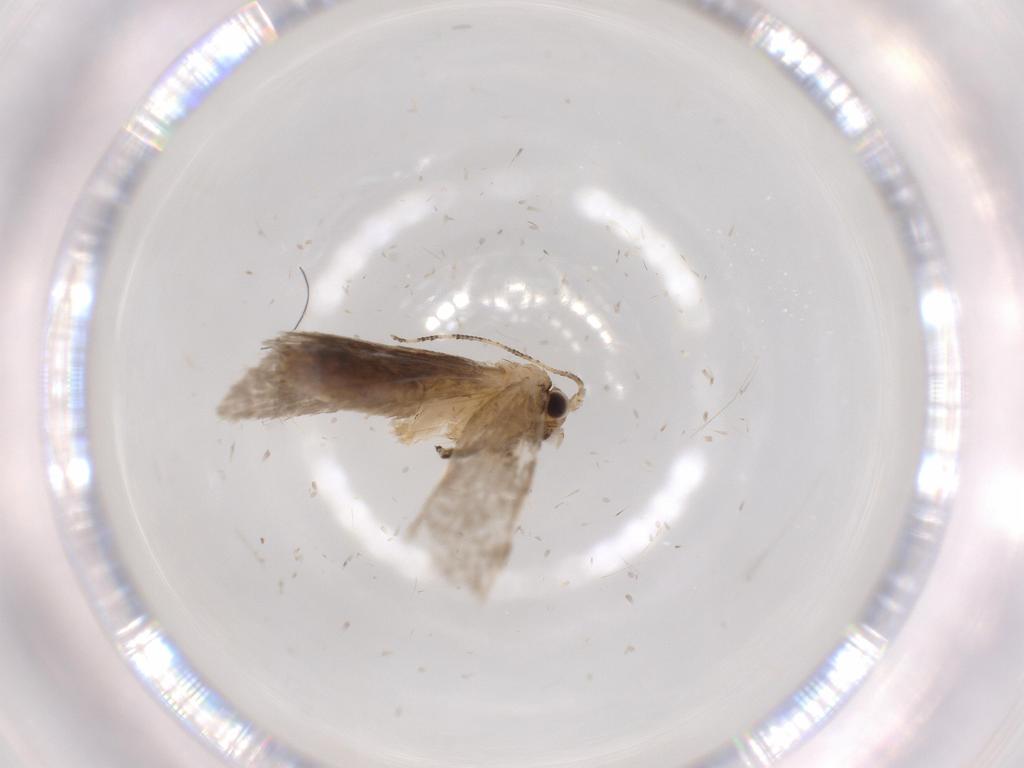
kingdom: Animalia
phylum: Arthropoda
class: Insecta
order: Lepidoptera
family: Tineidae
